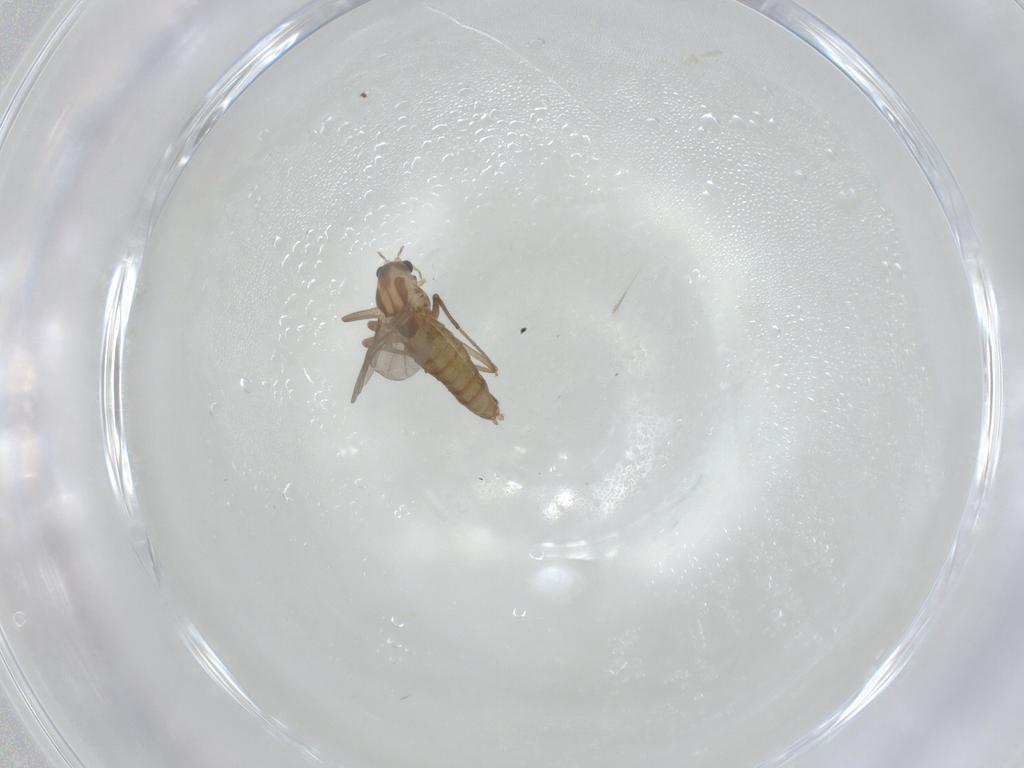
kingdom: Animalia
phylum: Arthropoda
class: Insecta
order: Diptera
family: Chironomidae
